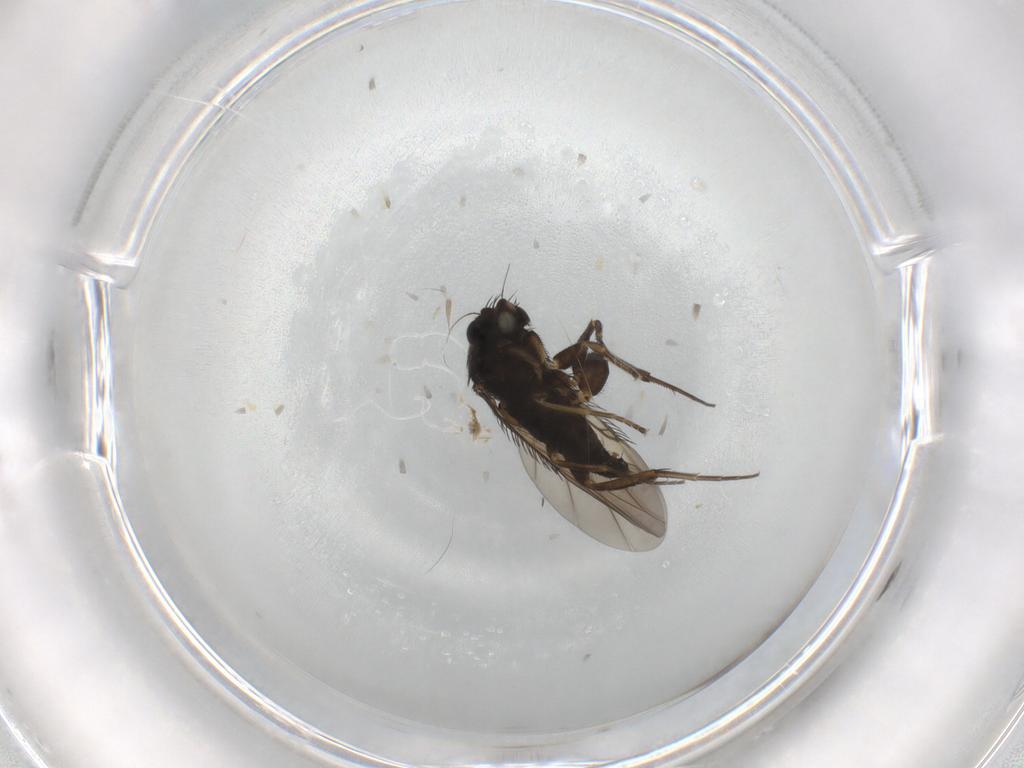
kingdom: Animalia
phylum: Arthropoda
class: Insecta
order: Diptera
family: Phoridae
